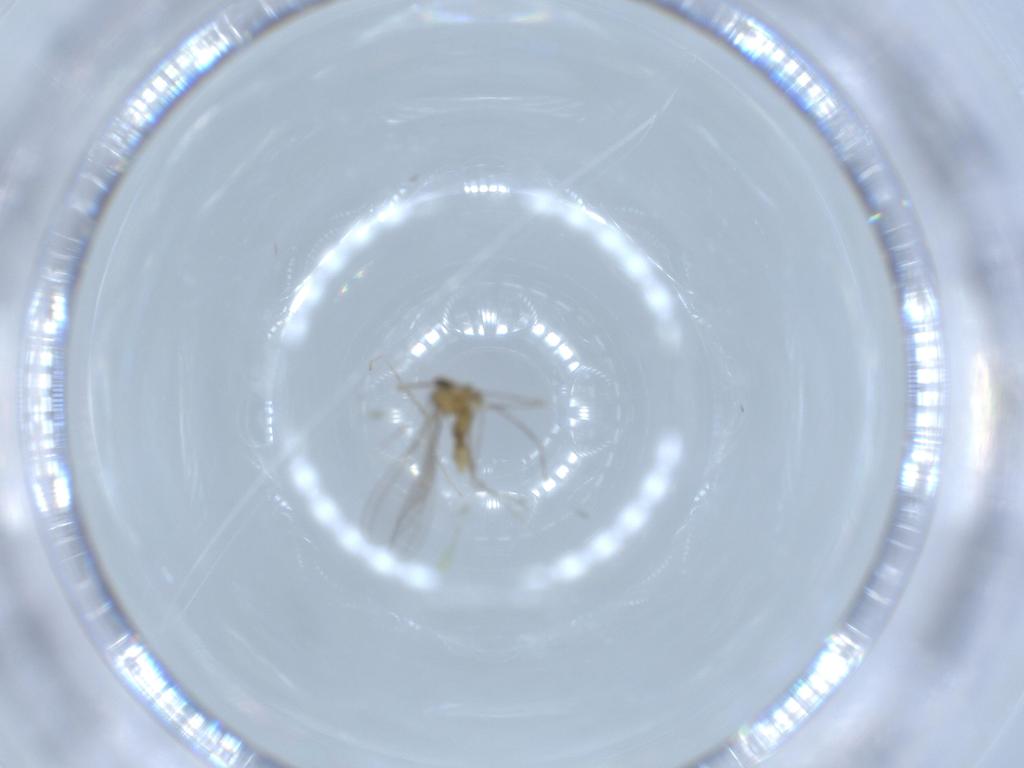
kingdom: Animalia
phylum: Arthropoda
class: Insecta
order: Diptera
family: Cecidomyiidae
